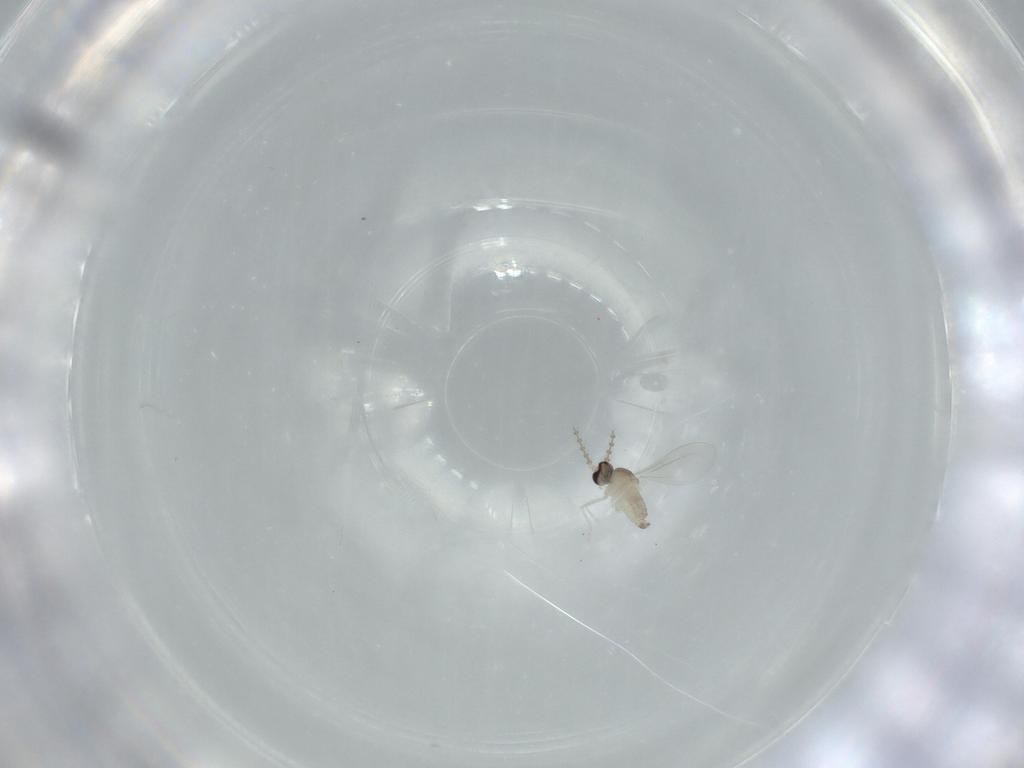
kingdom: Animalia
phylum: Arthropoda
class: Insecta
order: Diptera
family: Cecidomyiidae
